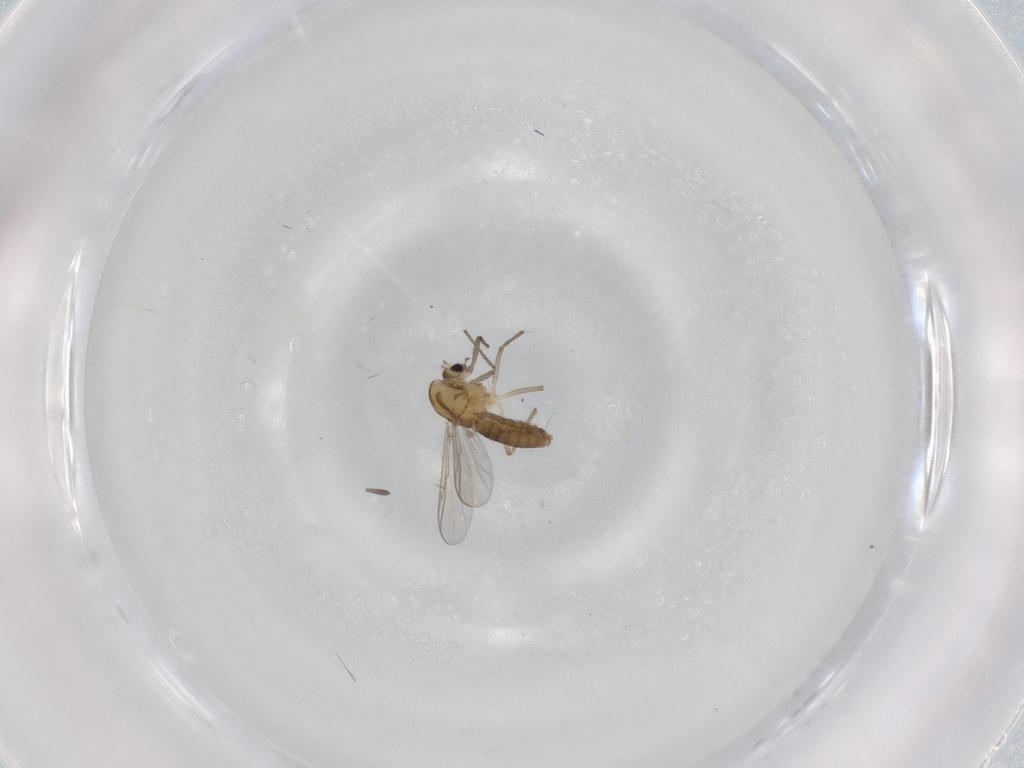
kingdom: Animalia
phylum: Arthropoda
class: Insecta
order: Diptera
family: Chironomidae
